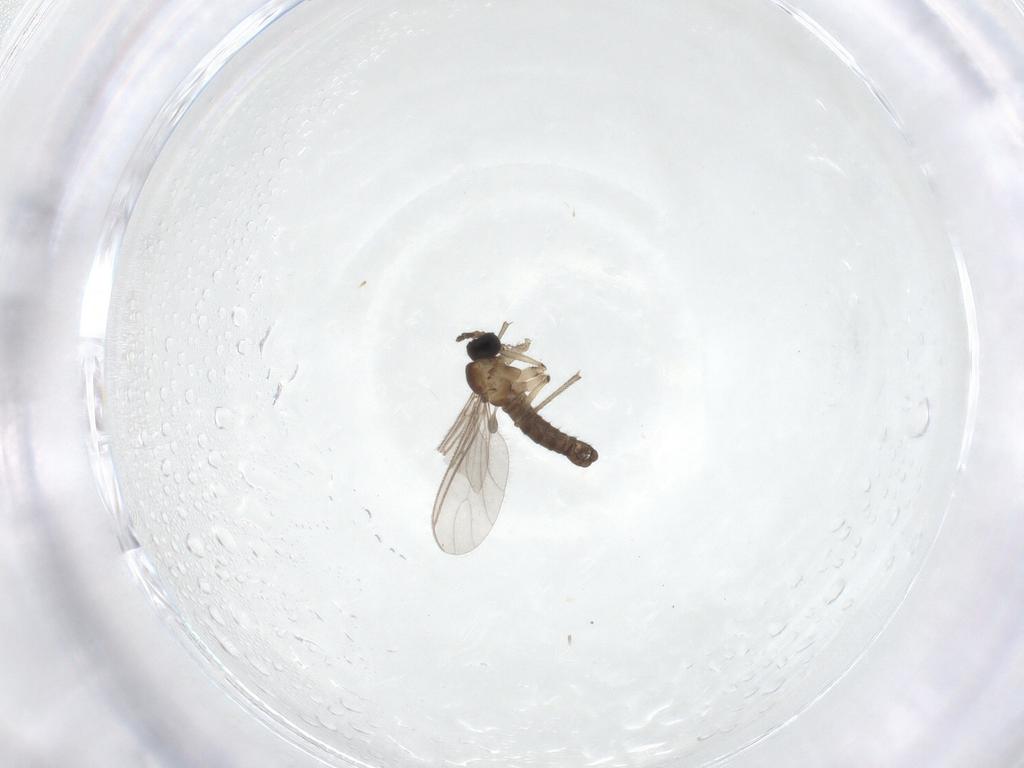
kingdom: Animalia
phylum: Arthropoda
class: Insecta
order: Diptera
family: Sciaridae
